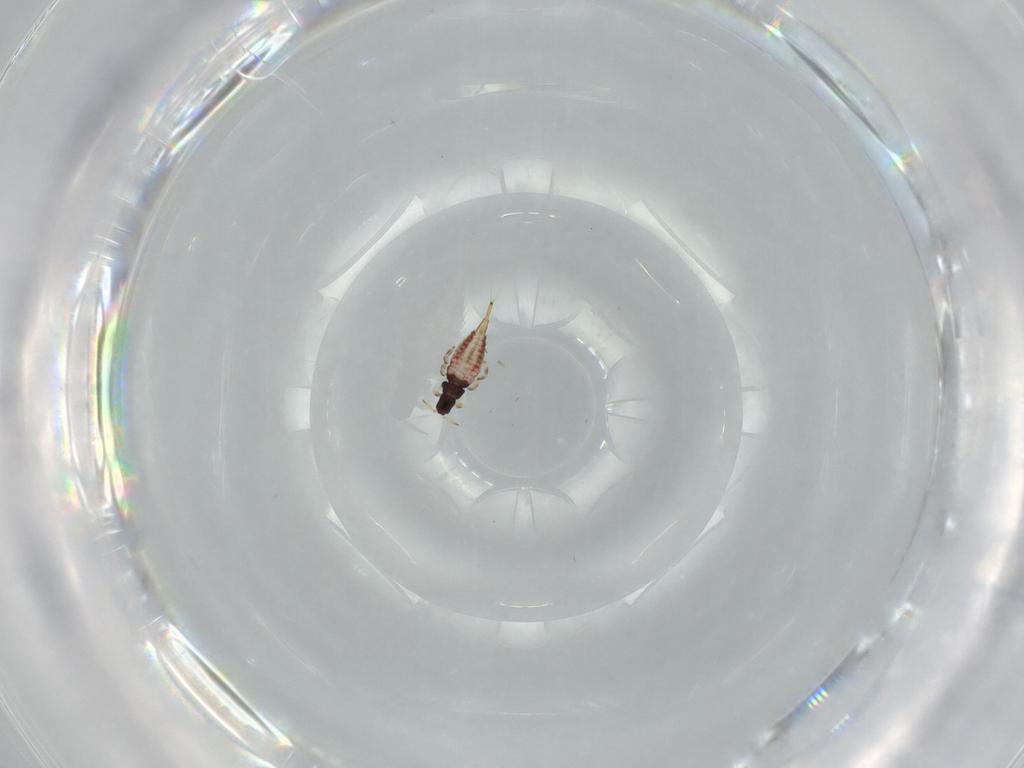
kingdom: Animalia
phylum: Arthropoda
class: Insecta
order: Thysanoptera
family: Phlaeothripidae
